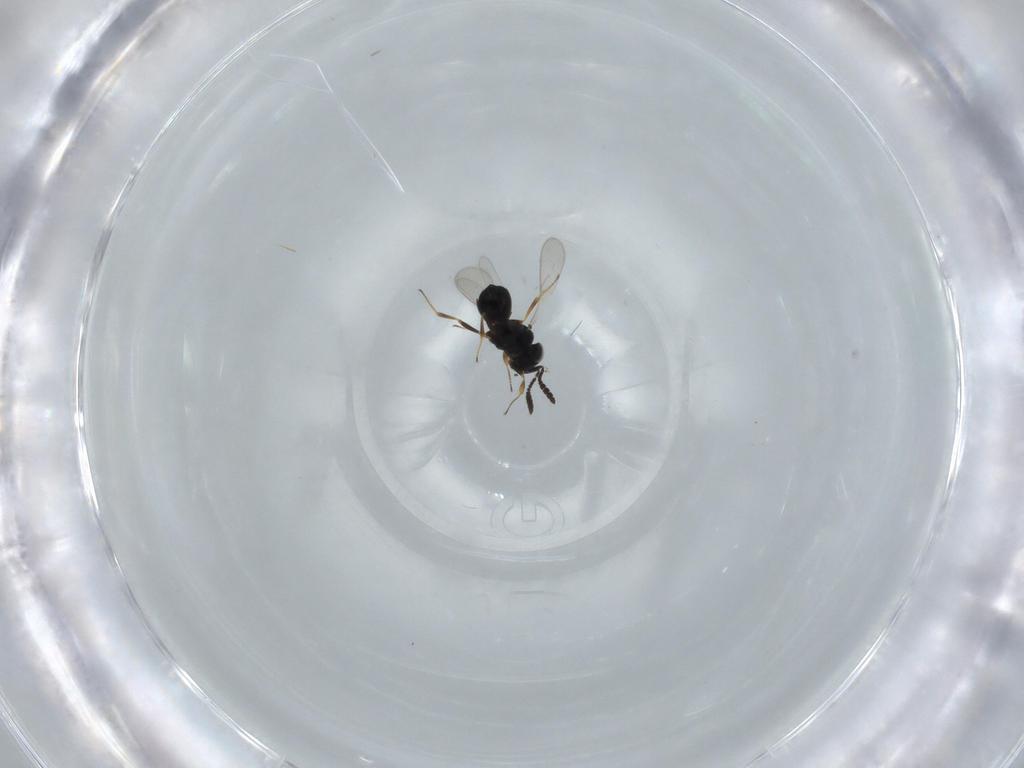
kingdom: Animalia
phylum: Arthropoda
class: Insecta
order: Hymenoptera
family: Scelionidae
